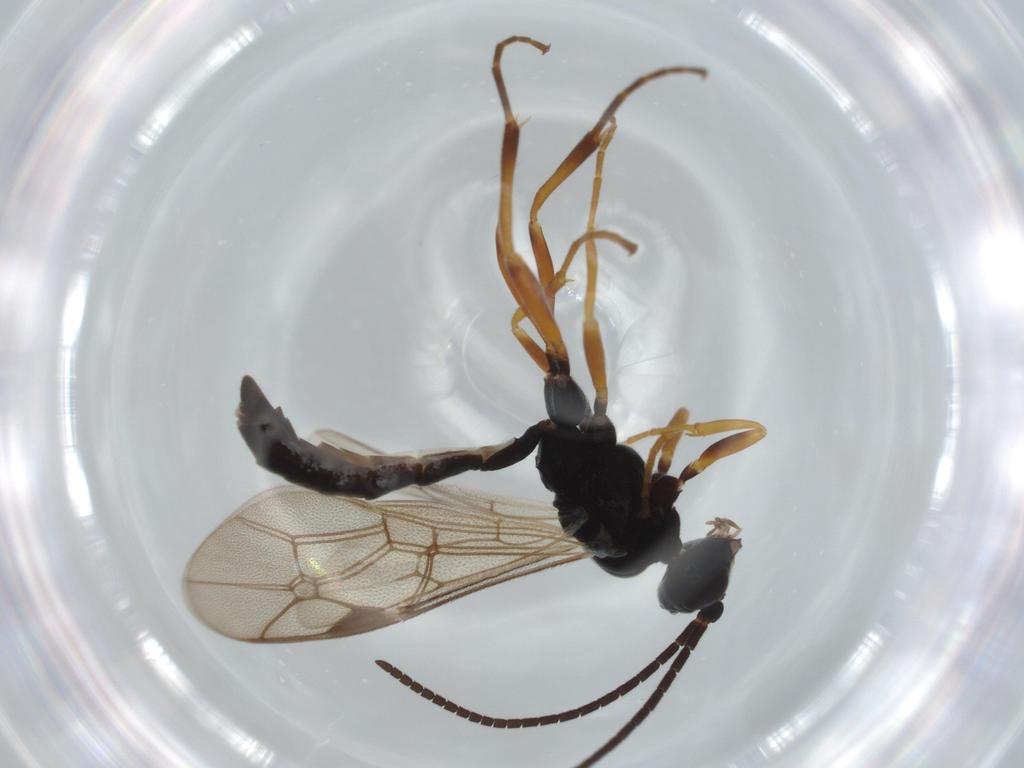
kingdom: Animalia
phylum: Arthropoda
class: Insecta
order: Hymenoptera
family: Ichneumonidae
